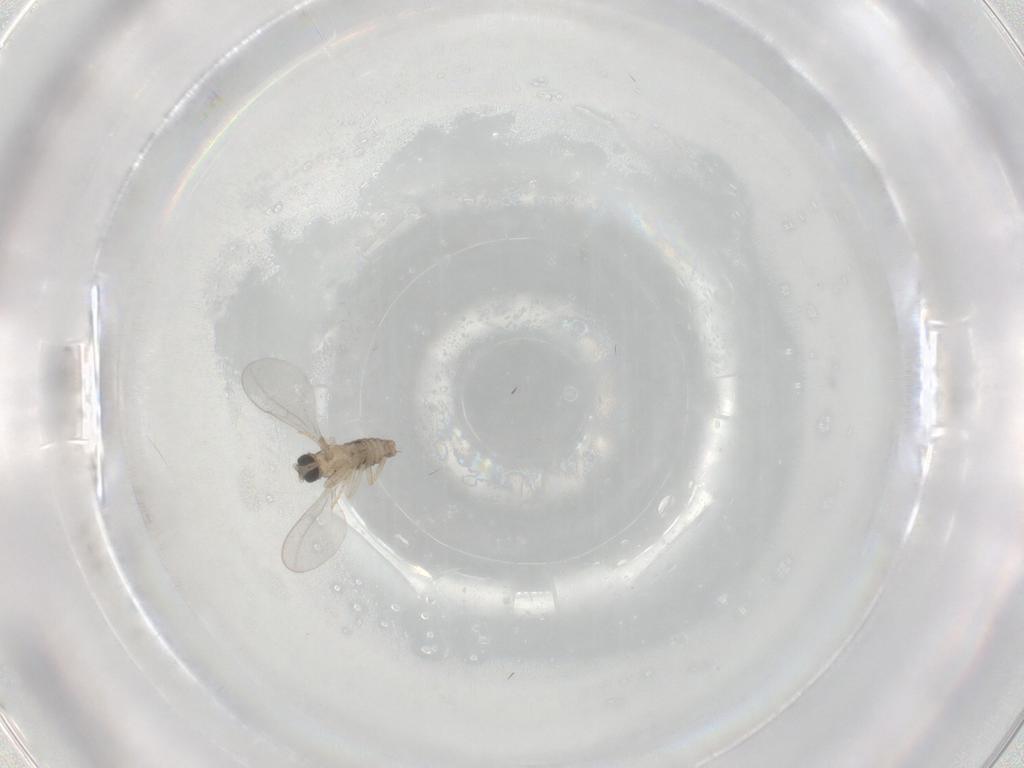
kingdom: Animalia
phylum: Arthropoda
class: Insecta
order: Diptera
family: Cecidomyiidae
